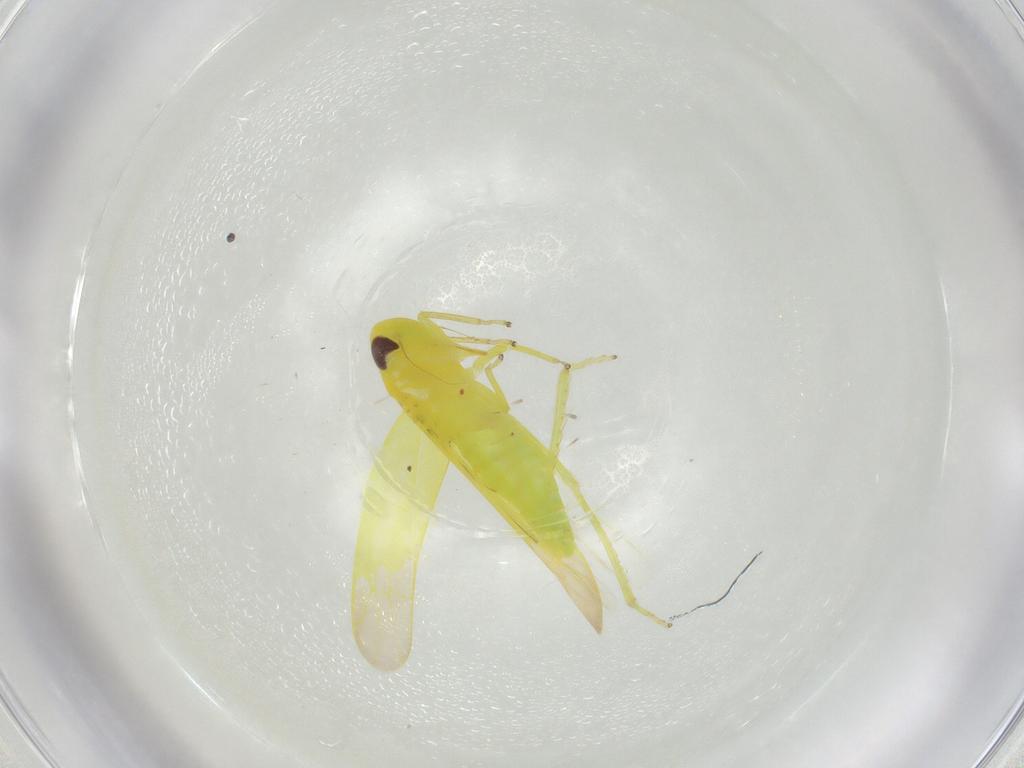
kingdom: Animalia
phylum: Arthropoda
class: Insecta
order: Hemiptera
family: Cicadellidae
